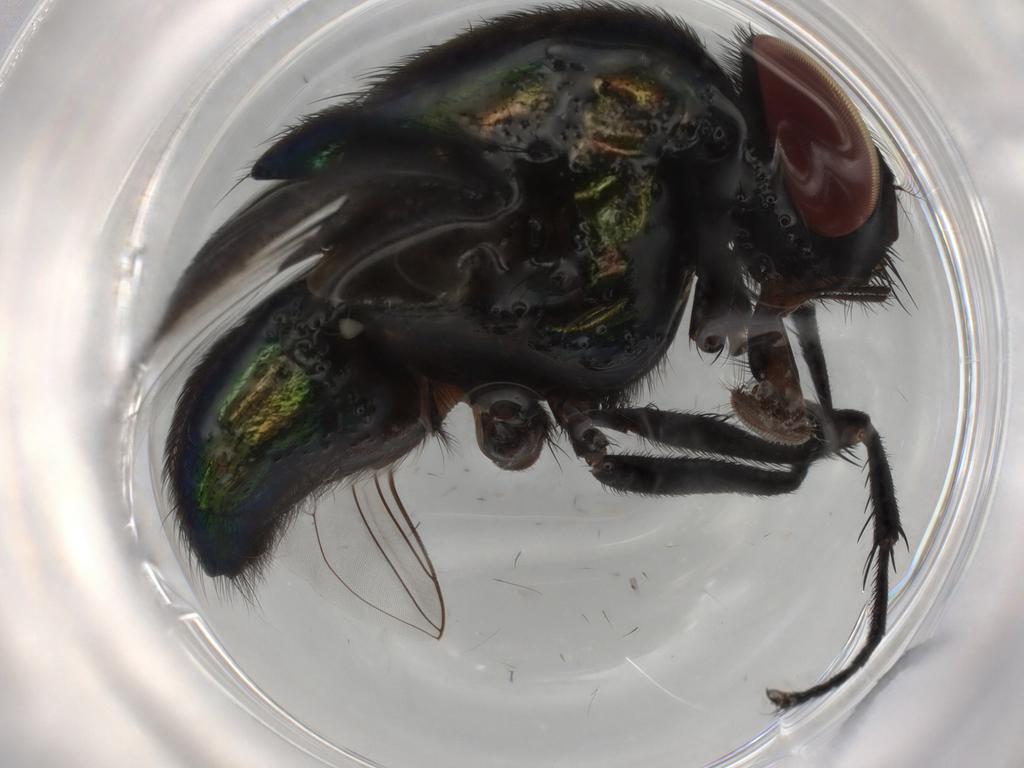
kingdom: Animalia
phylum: Arthropoda
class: Insecta
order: Diptera
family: Muscidae
